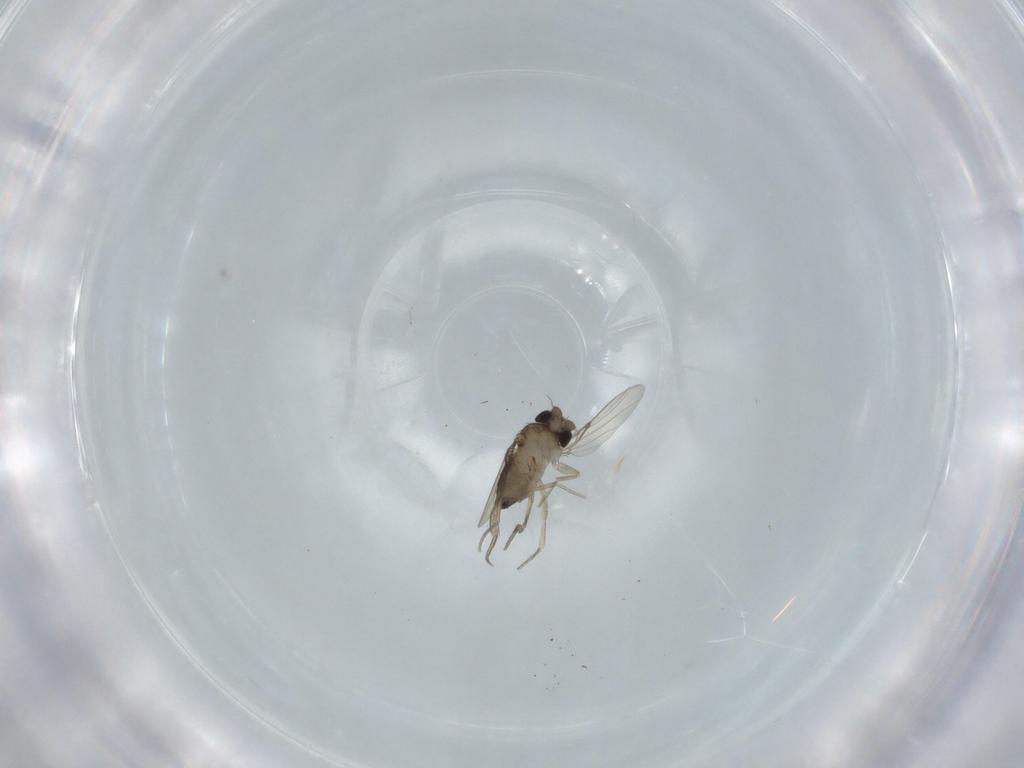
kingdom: Animalia
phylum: Arthropoda
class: Insecta
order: Diptera
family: Phoridae
